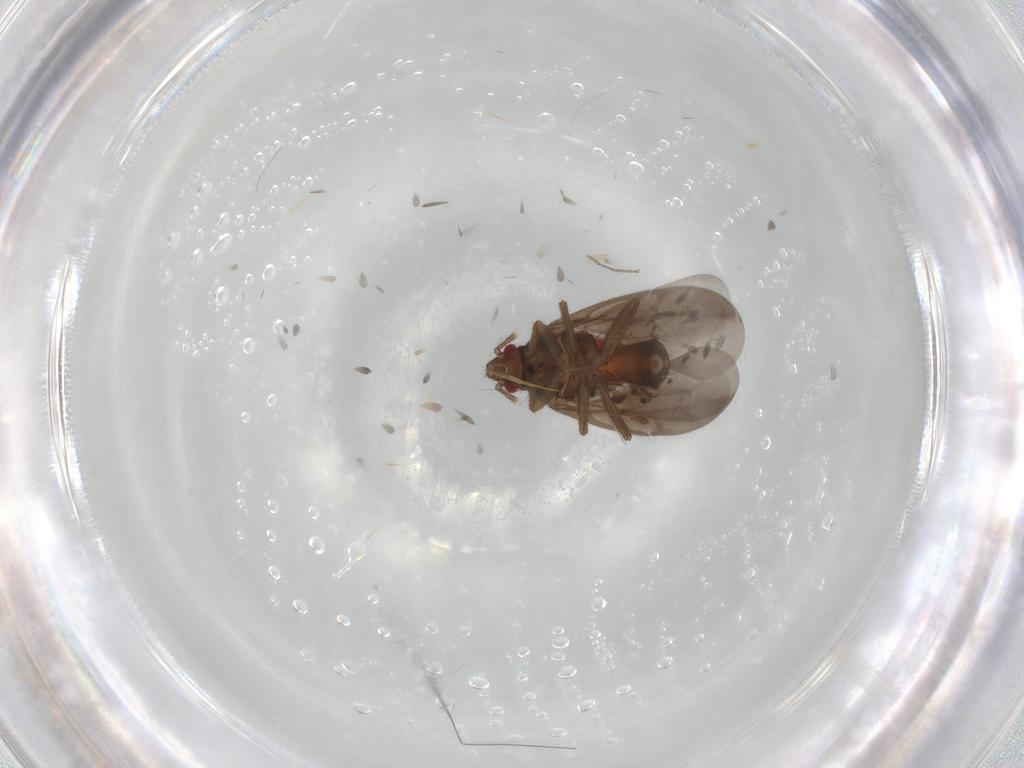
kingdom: Animalia
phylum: Arthropoda
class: Insecta
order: Hemiptera
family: Ceratocombidae
